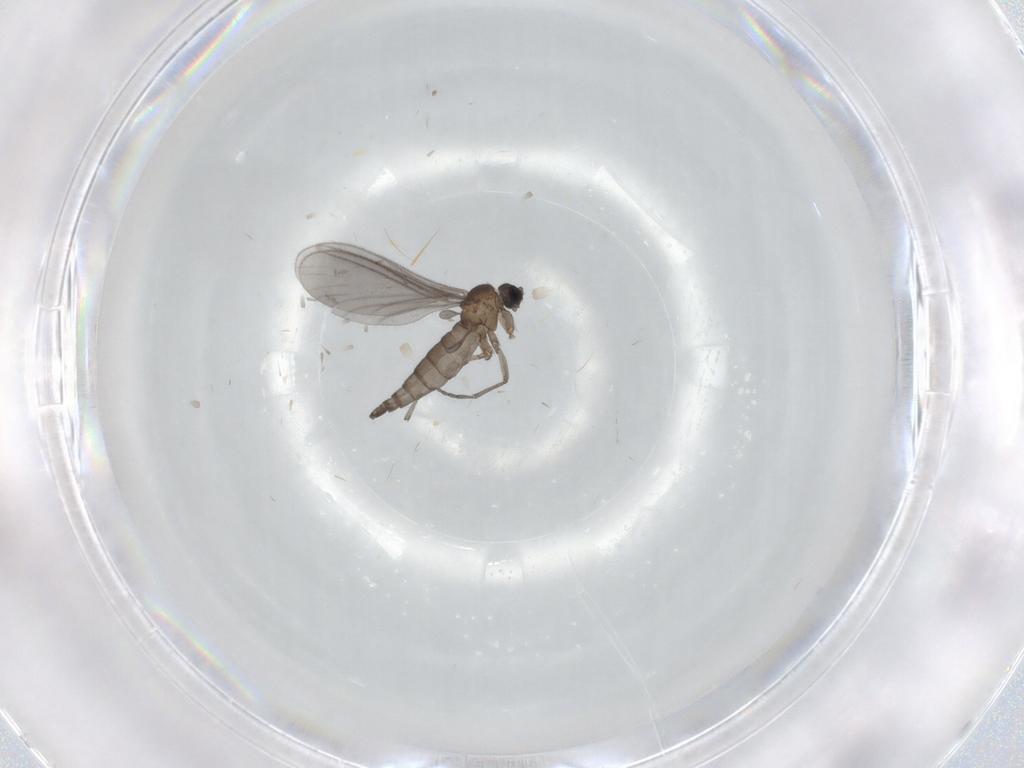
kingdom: Animalia
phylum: Arthropoda
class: Insecta
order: Diptera
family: Sciaridae
